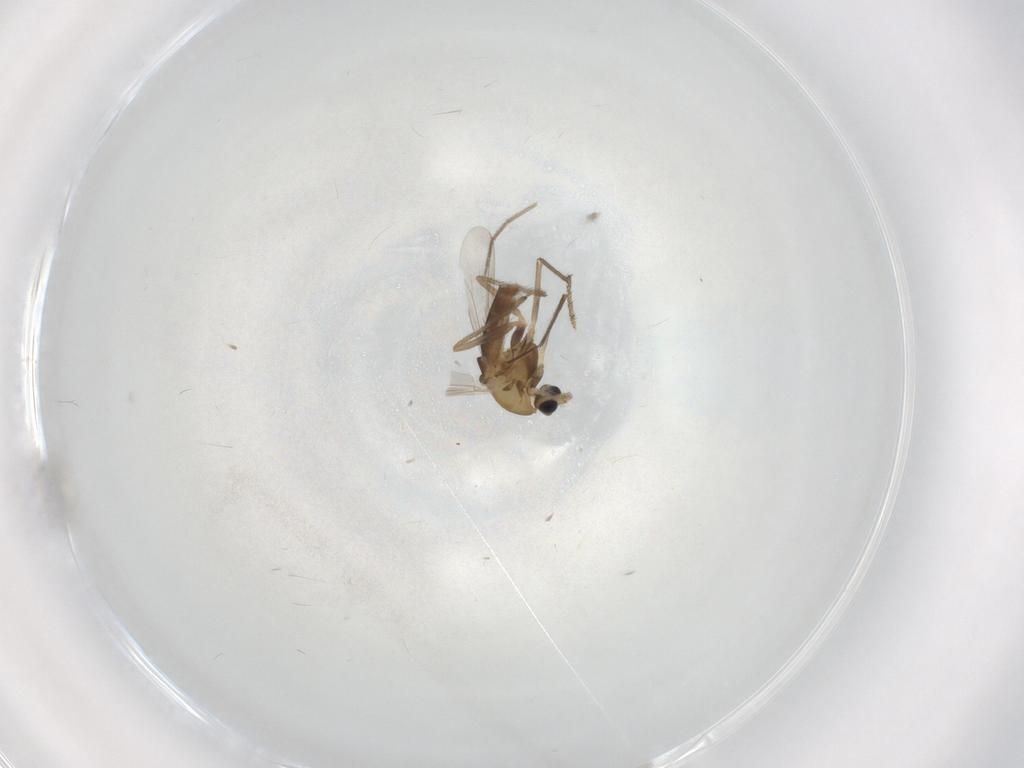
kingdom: Animalia
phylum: Arthropoda
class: Insecta
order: Diptera
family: Chironomidae
